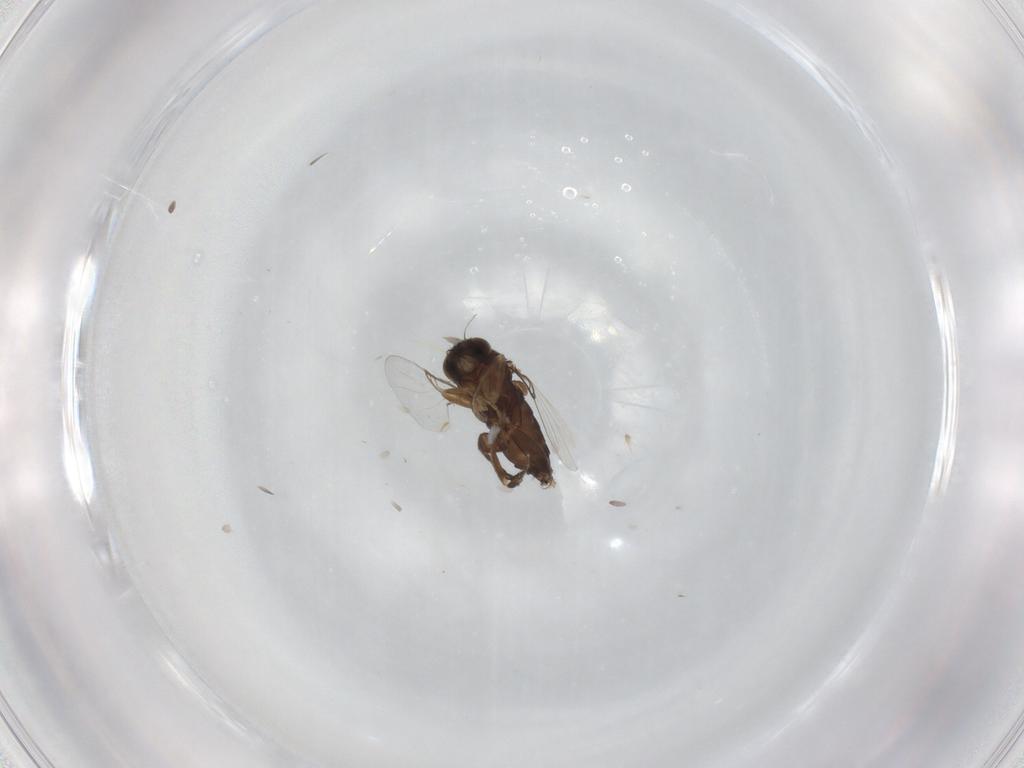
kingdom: Animalia
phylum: Arthropoda
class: Insecta
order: Diptera
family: Phoridae
